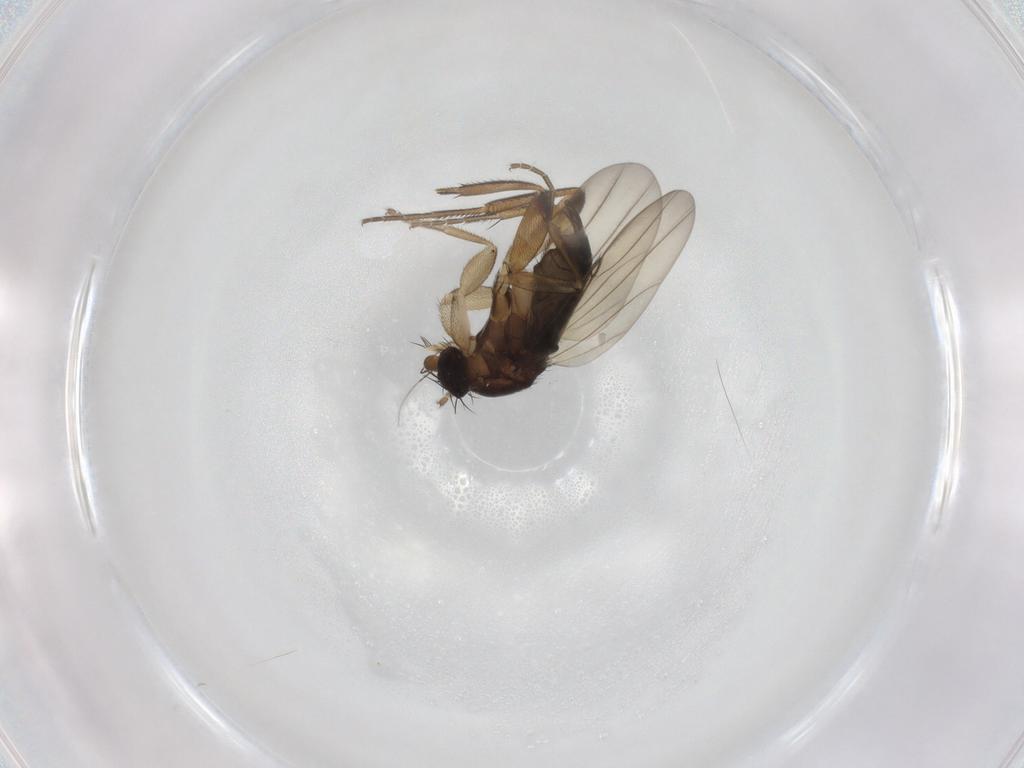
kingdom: Animalia
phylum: Arthropoda
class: Insecta
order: Diptera
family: Phoridae
